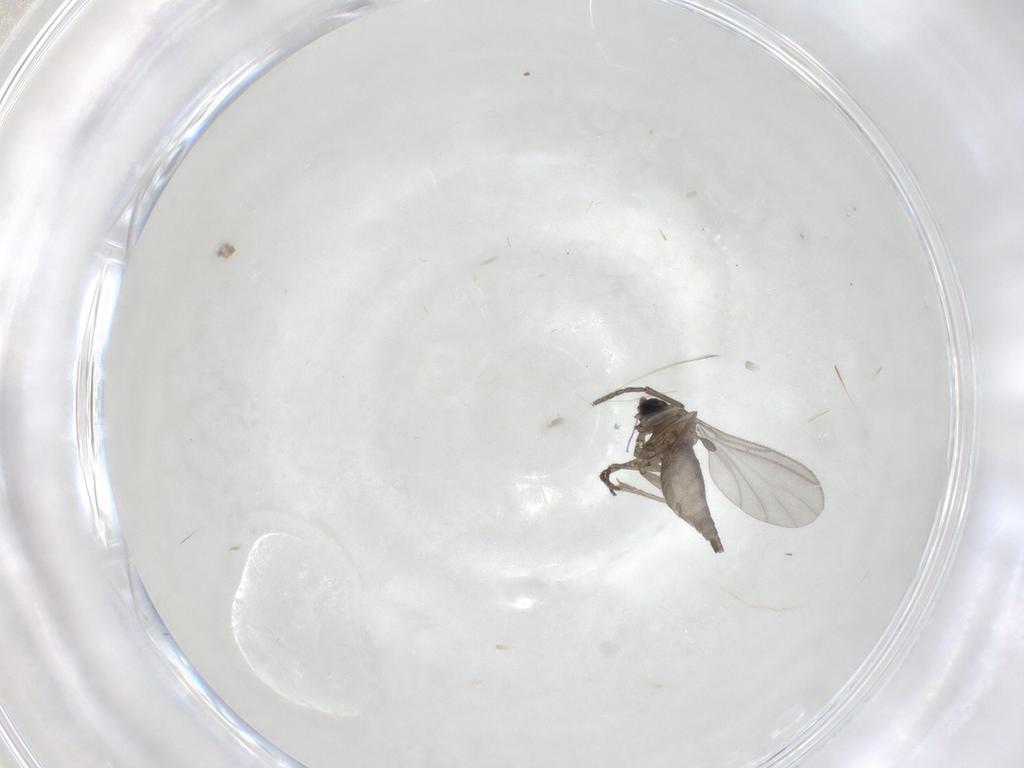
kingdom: Animalia
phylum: Arthropoda
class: Insecta
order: Diptera
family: Sciaridae
